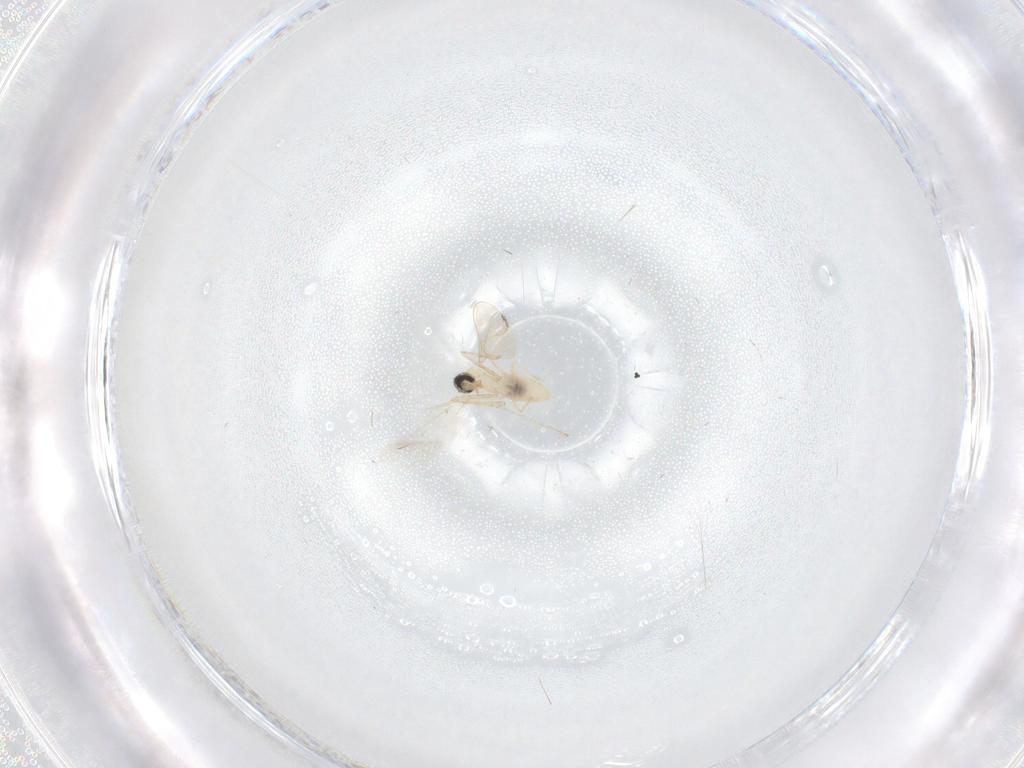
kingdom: Animalia
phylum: Arthropoda
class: Insecta
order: Diptera
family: Cecidomyiidae
